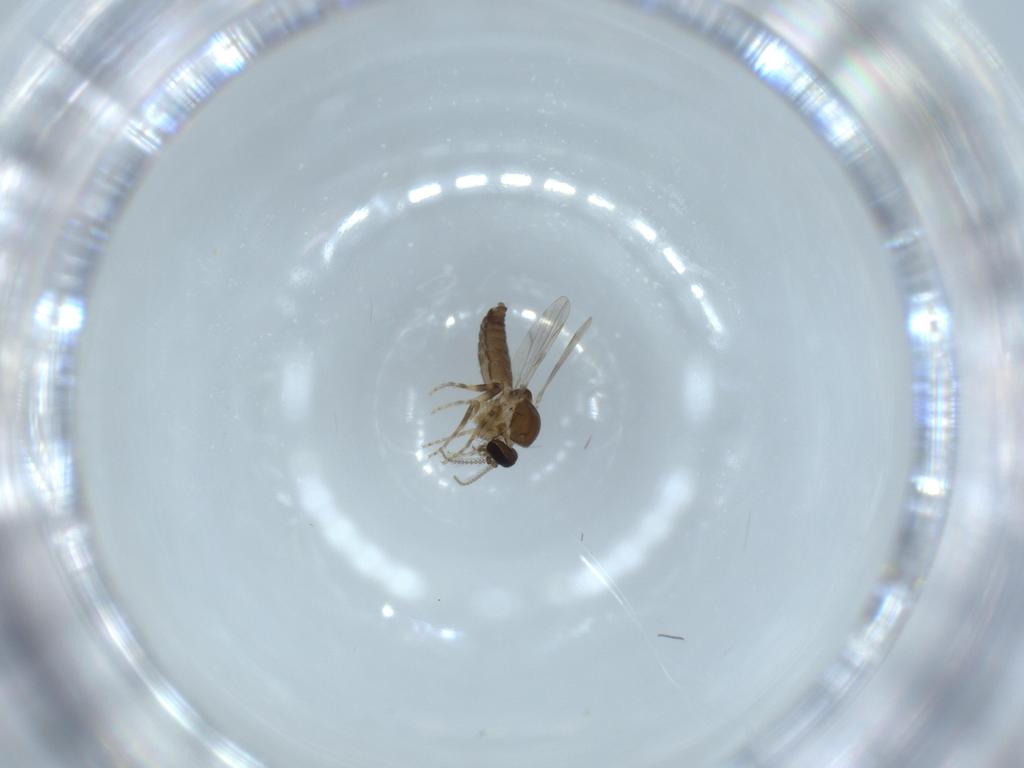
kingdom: Animalia
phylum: Arthropoda
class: Insecta
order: Diptera
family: Ceratopogonidae
